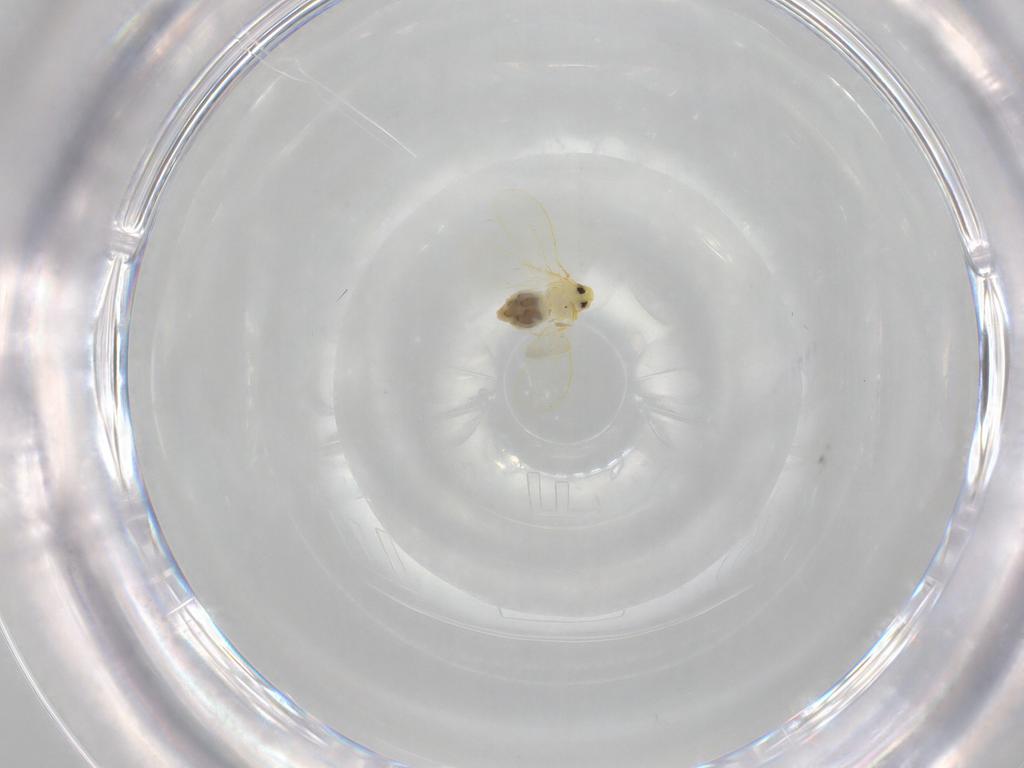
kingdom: Animalia
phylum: Arthropoda
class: Insecta
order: Hemiptera
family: Aleyrodidae
